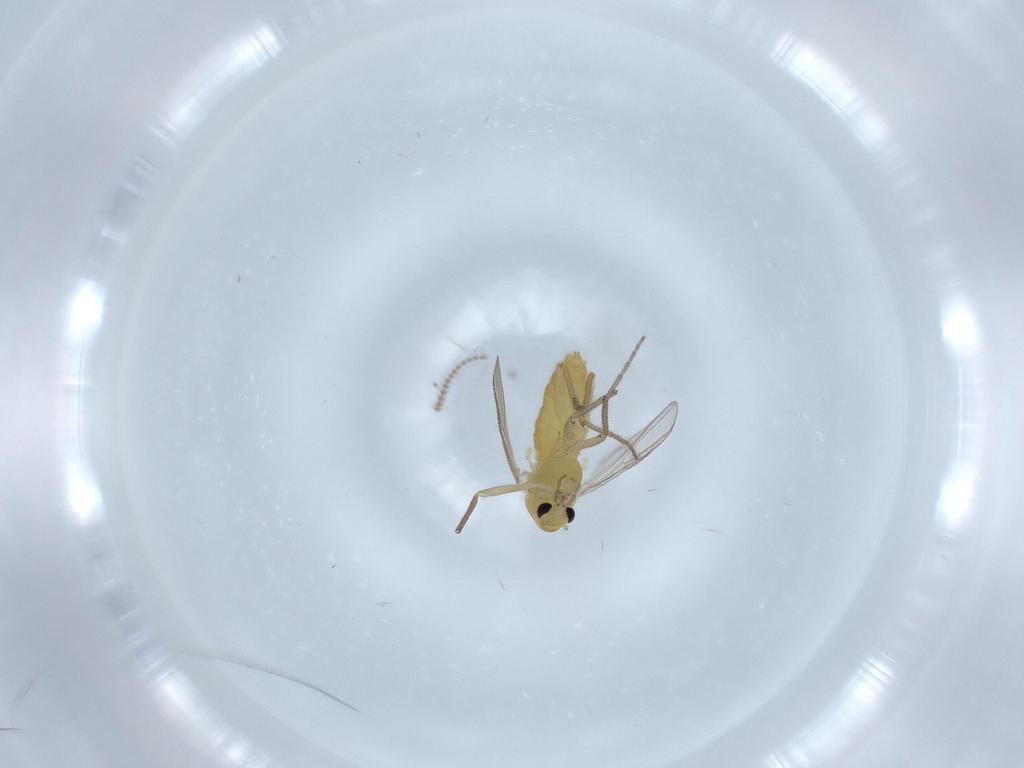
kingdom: Animalia
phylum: Arthropoda
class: Insecta
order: Diptera
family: Chironomidae
